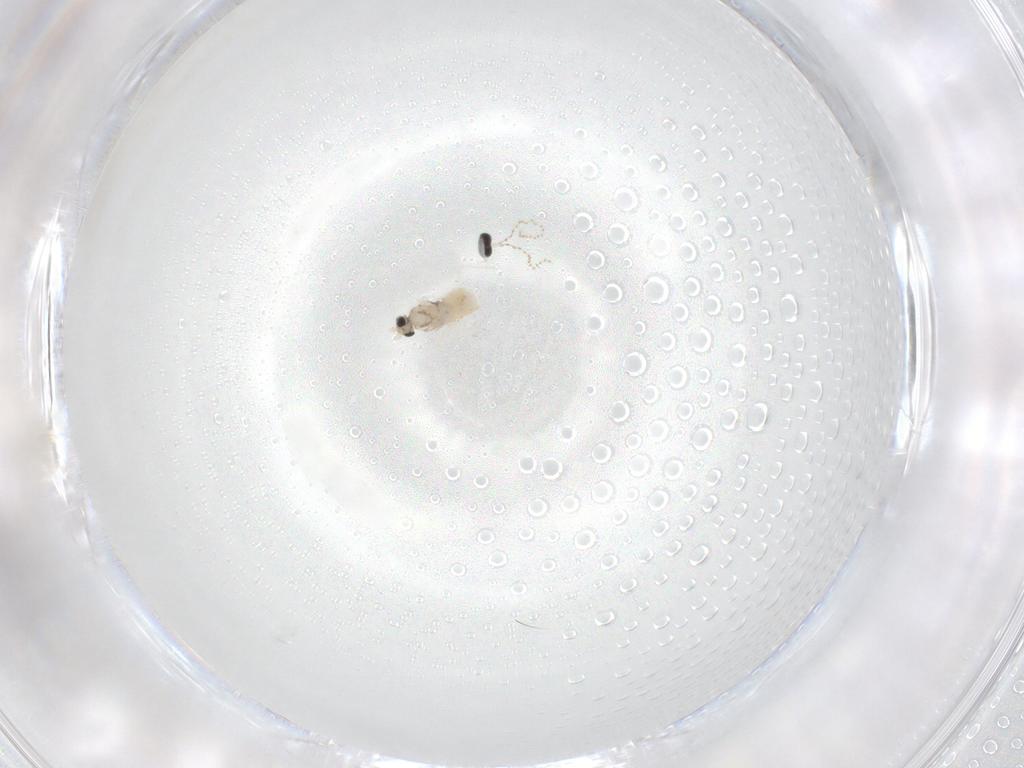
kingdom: Animalia
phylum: Arthropoda
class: Insecta
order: Diptera
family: Cecidomyiidae
